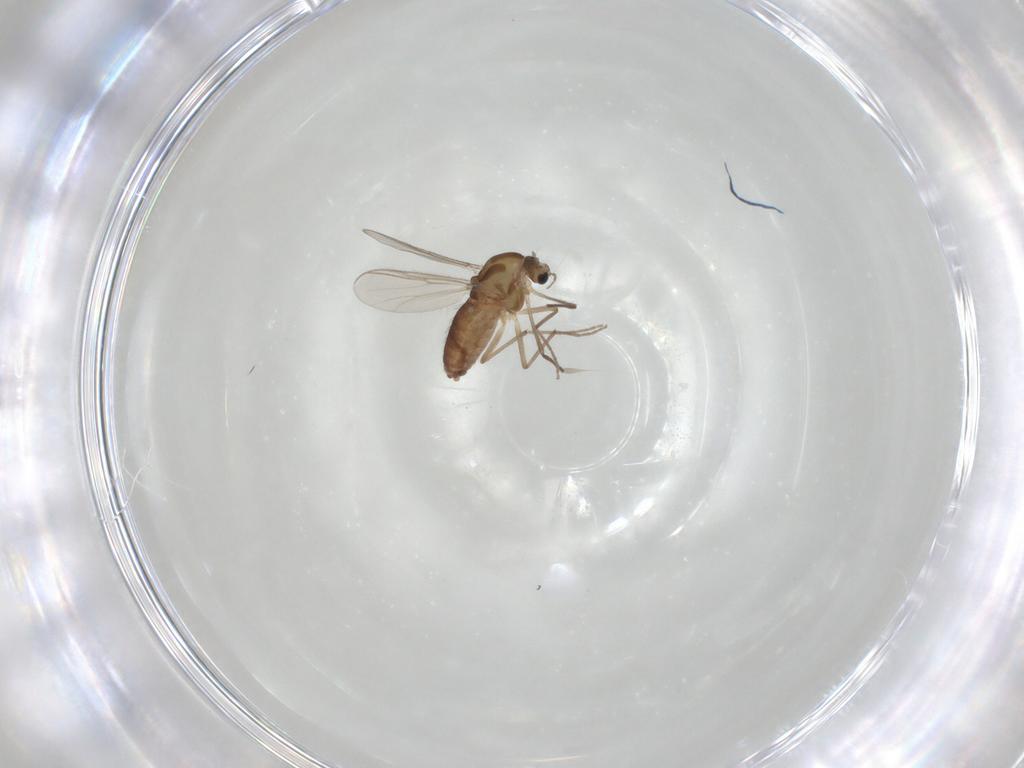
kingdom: Animalia
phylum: Arthropoda
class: Insecta
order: Diptera
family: Chironomidae
